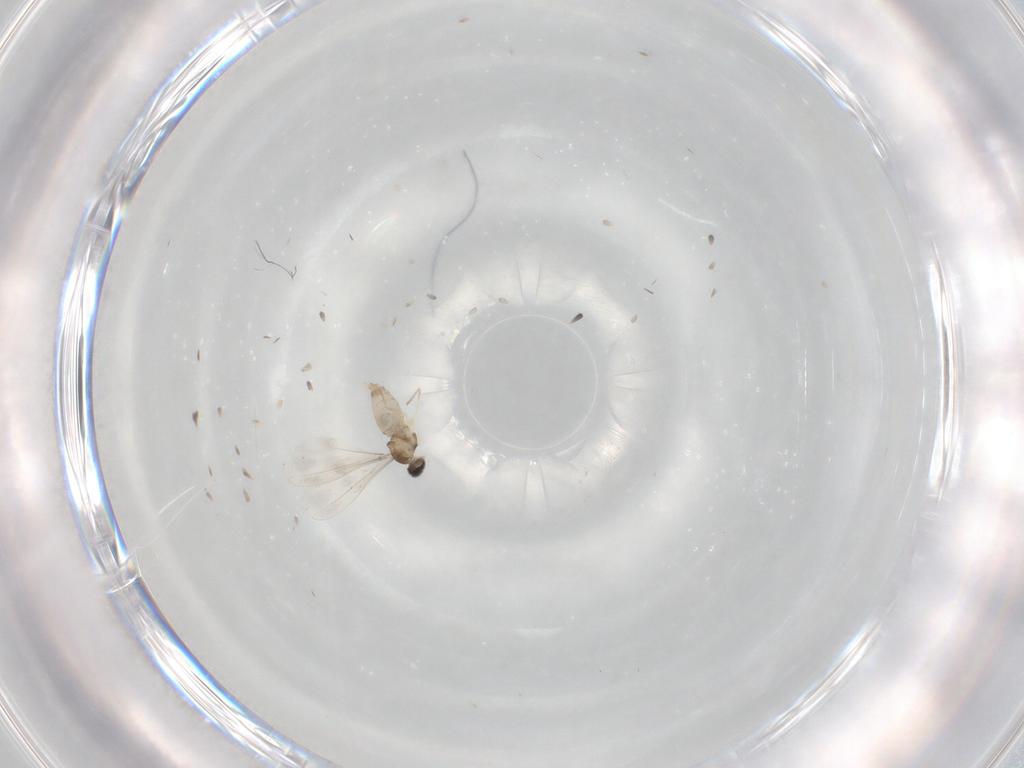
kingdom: Animalia
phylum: Arthropoda
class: Insecta
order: Diptera
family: Cecidomyiidae
